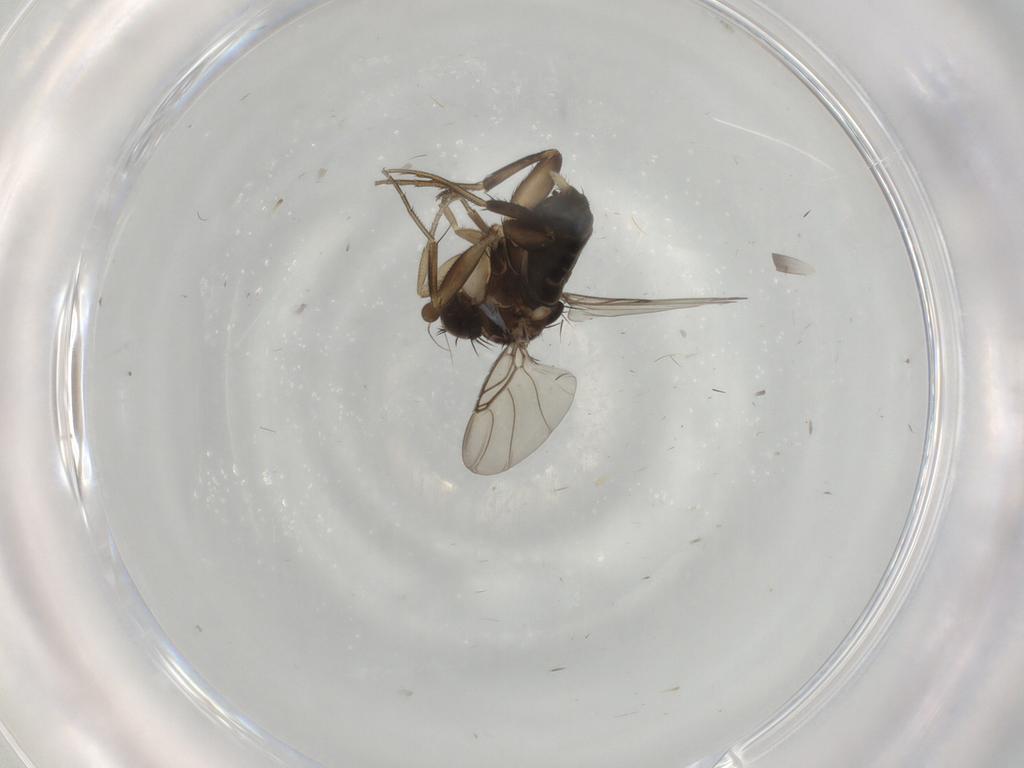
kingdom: Animalia
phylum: Arthropoda
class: Insecta
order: Diptera
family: Phoridae
